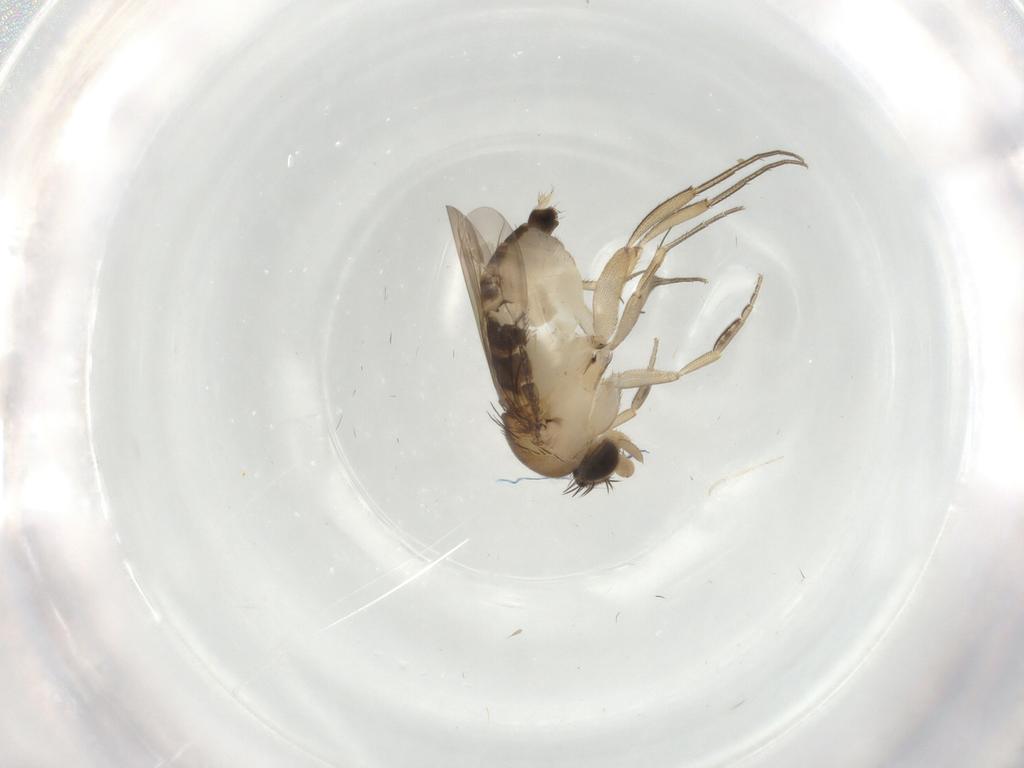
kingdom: Animalia
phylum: Arthropoda
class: Insecta
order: Diptera
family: Phoridae
